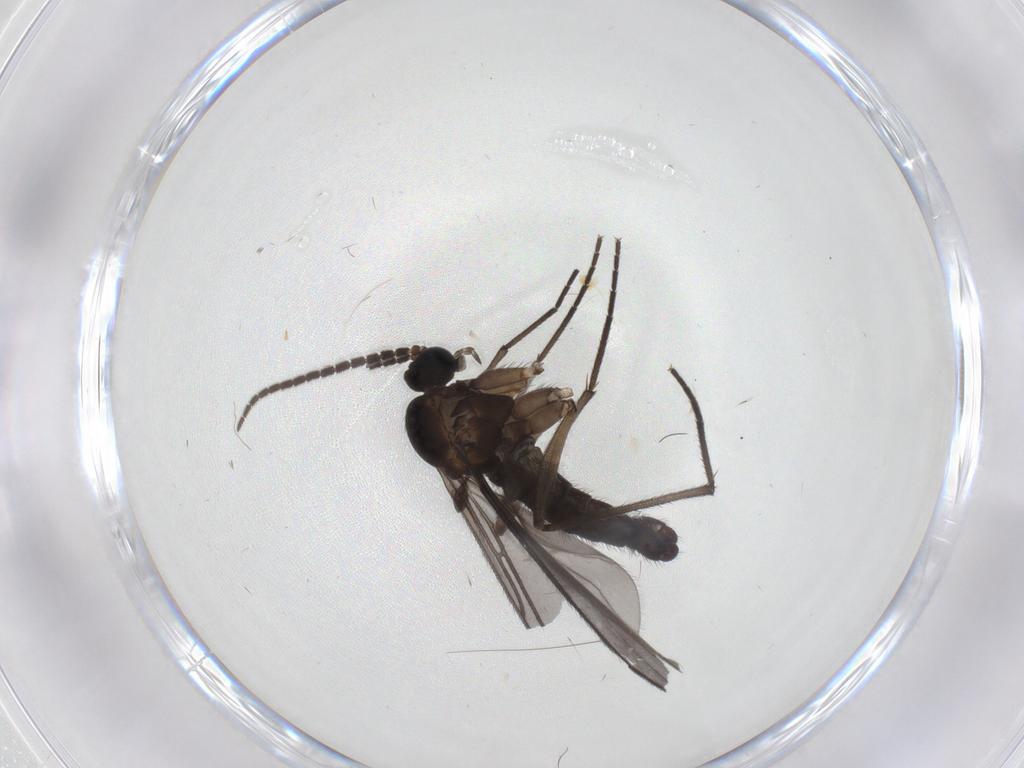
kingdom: Animalia
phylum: Arthropoda
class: Insecta
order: Diptera
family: Sciaridae
